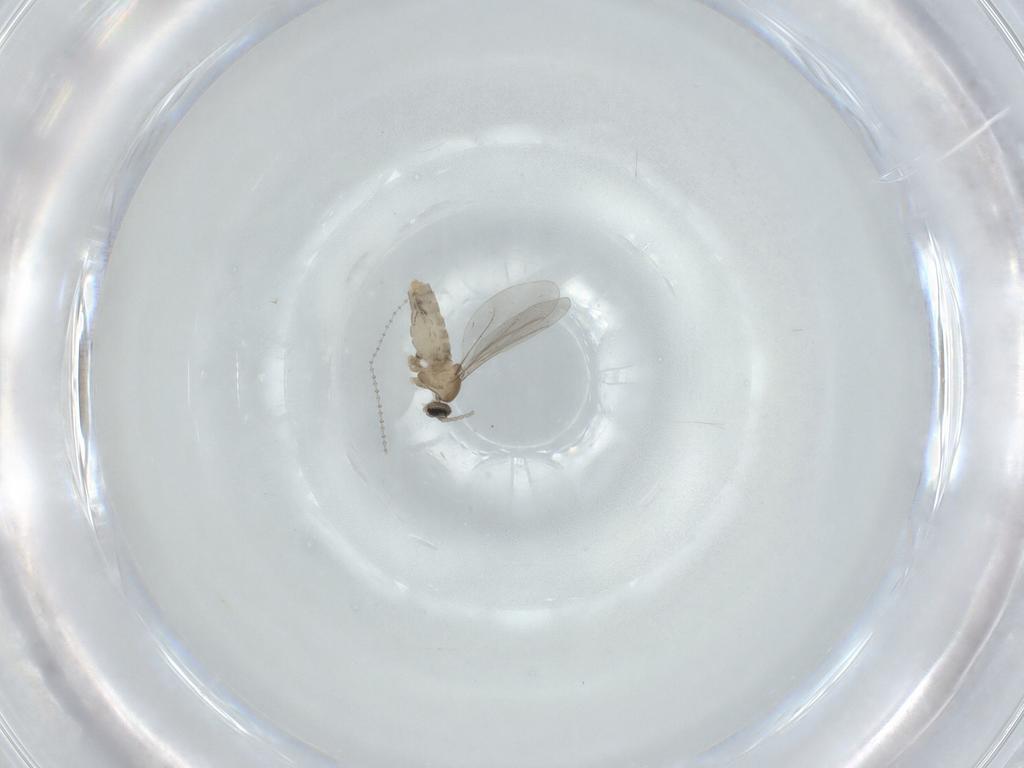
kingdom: Animalia
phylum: Arthropoda
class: Insecta
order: Diptera
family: Cecidomyiidae
